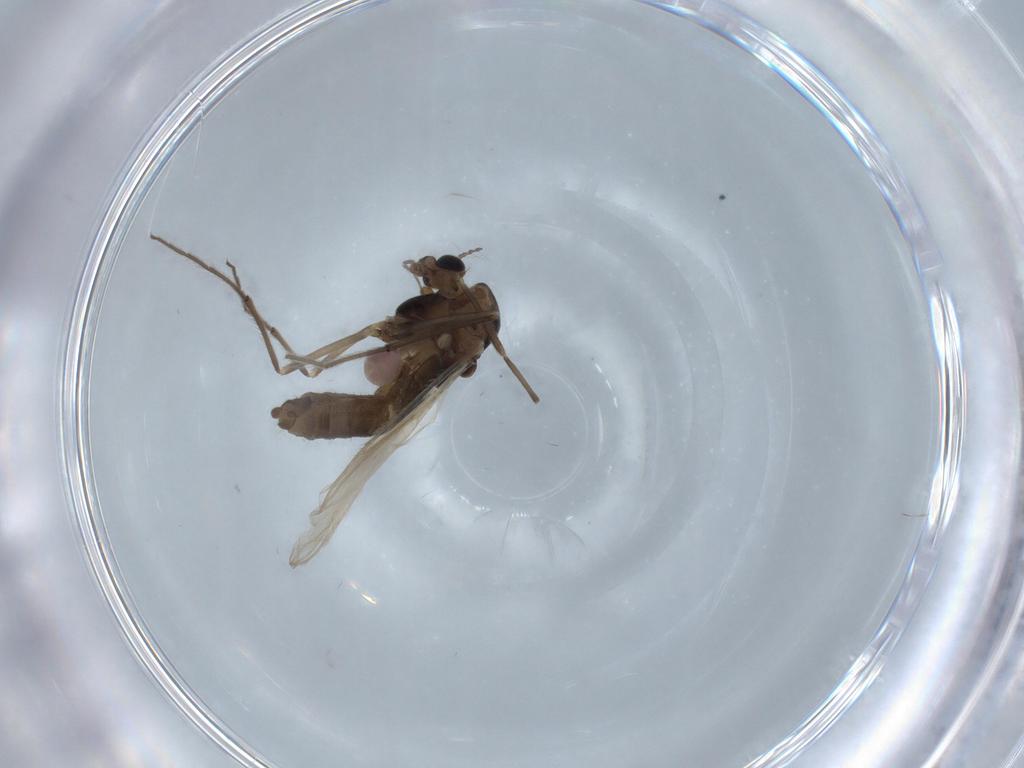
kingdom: Animalia
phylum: Arthropoda
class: Insecta
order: Diptera
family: Chironomidae
